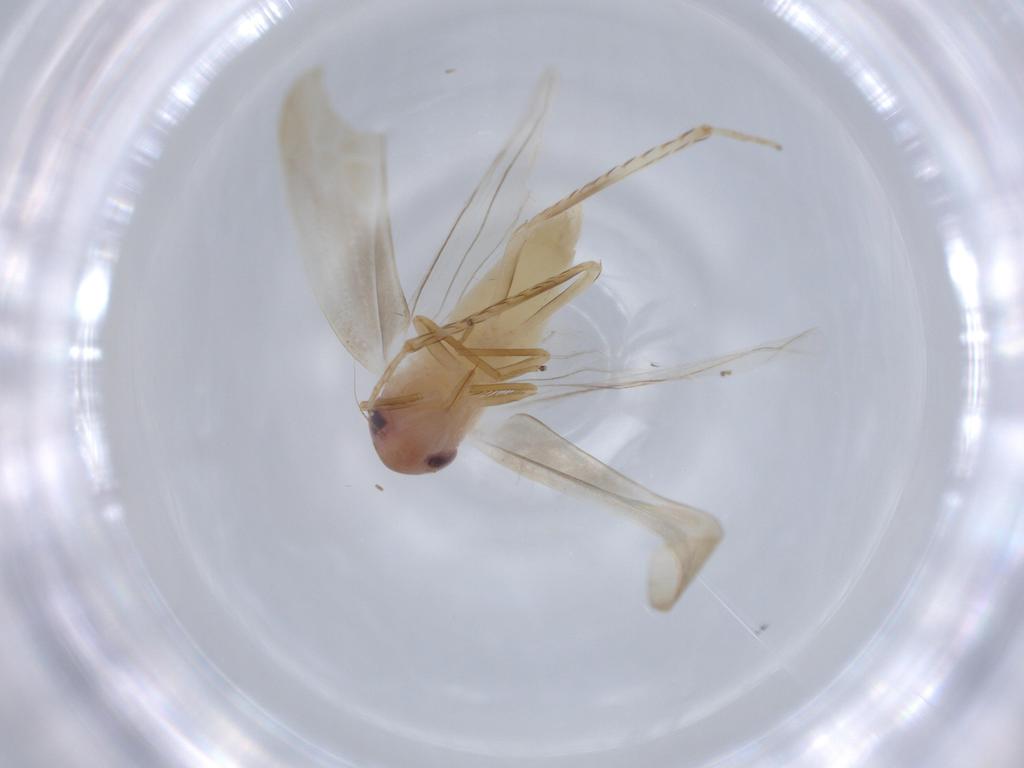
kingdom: Animalia
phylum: Arthropoda
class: Insecta
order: Hemiptera
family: Cicadellidae
